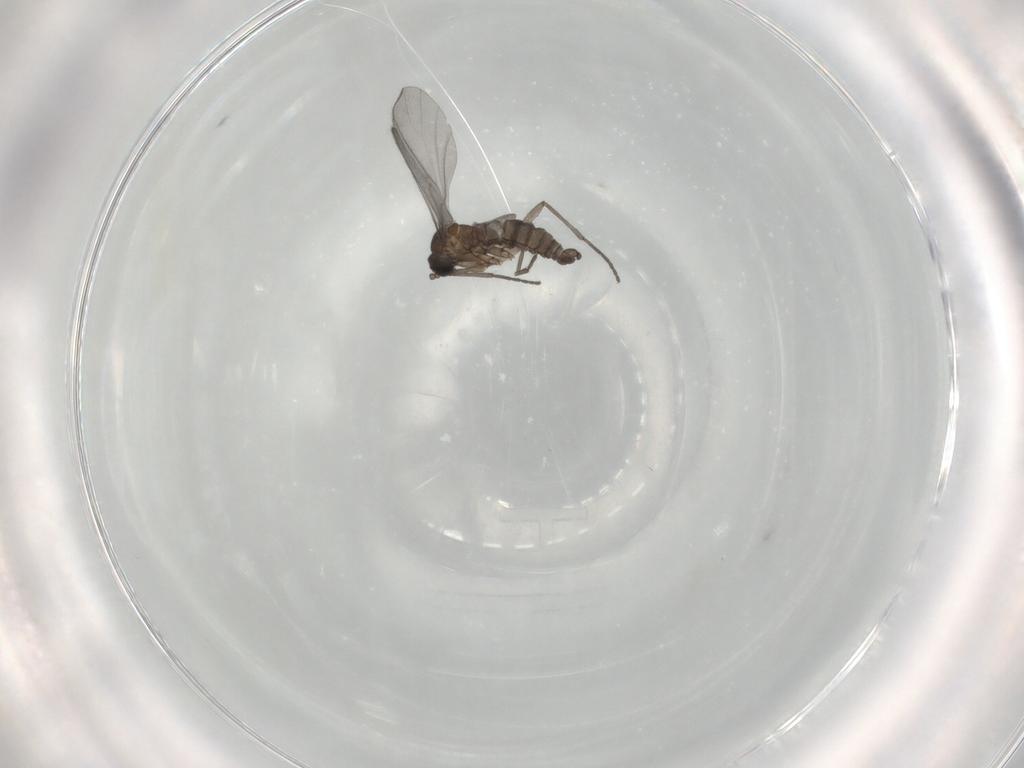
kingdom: Animalia
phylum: Arthropoda
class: Insecta
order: Diptera
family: Sciaridae
